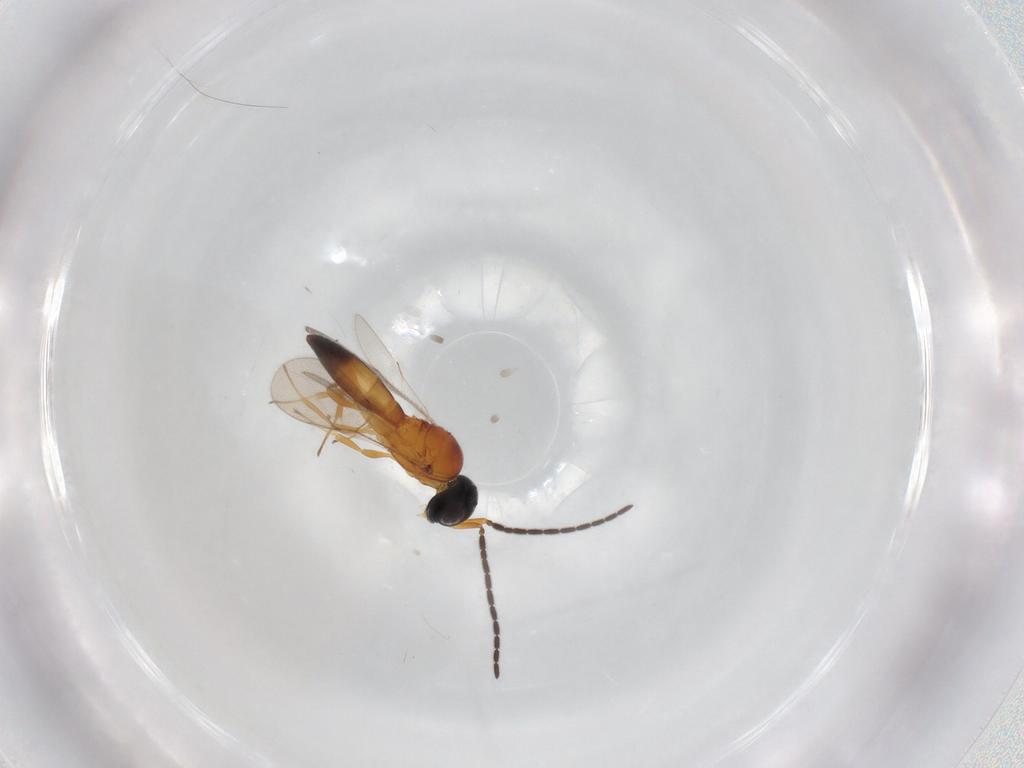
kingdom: Animalia
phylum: Arthropoda
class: Insecta
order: Hymenoptera
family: Scelionidae
